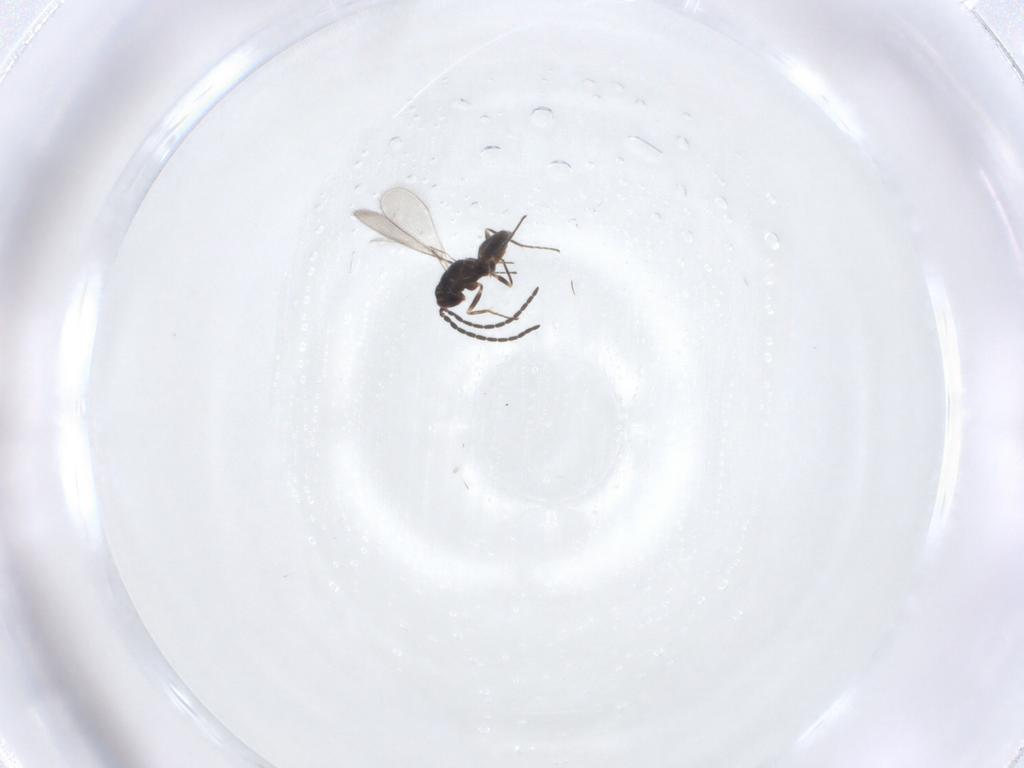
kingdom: Animalia
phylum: Arthropoda
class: Insecta
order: Hymenoptera
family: Mymaridae
